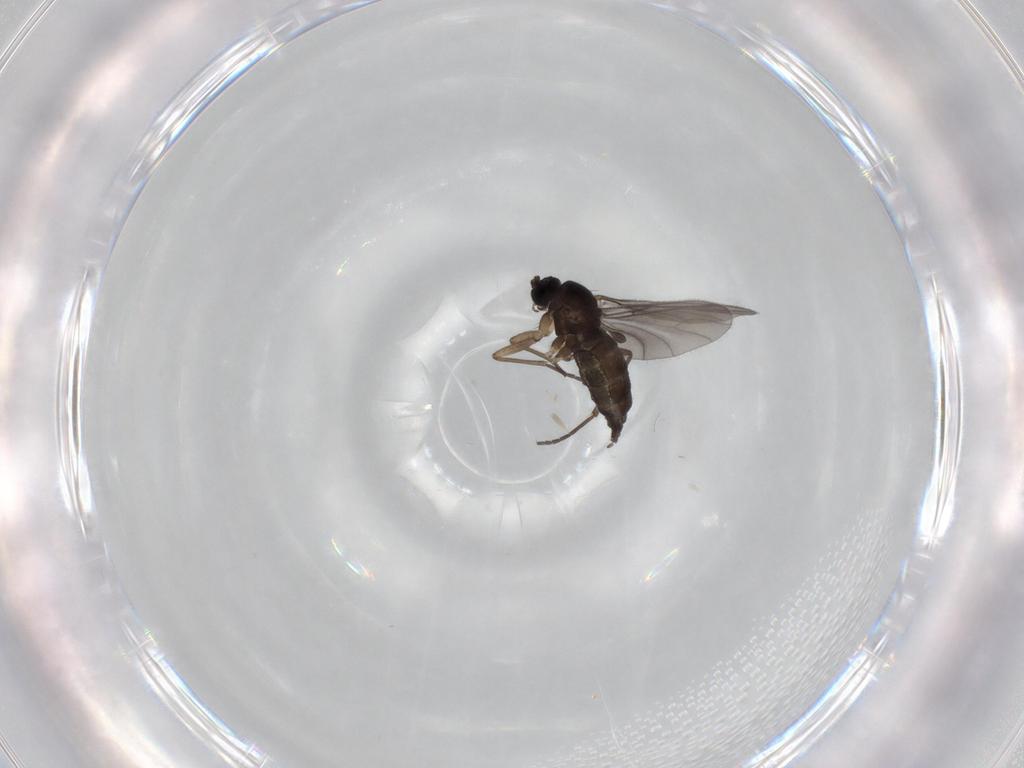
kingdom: Animalia
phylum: Arthropoda
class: Insecta
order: Diptera
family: Sciaridae
